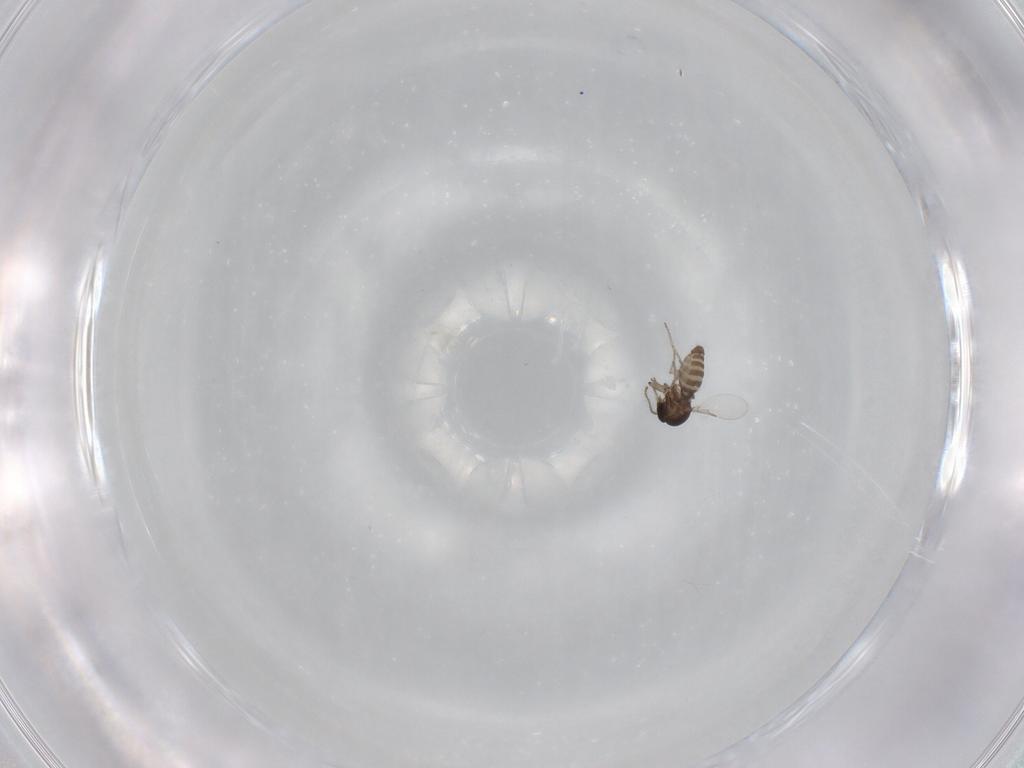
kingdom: Animalia
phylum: Arthropoda
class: Insecta
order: Diptera
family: Ceratopogonidae
